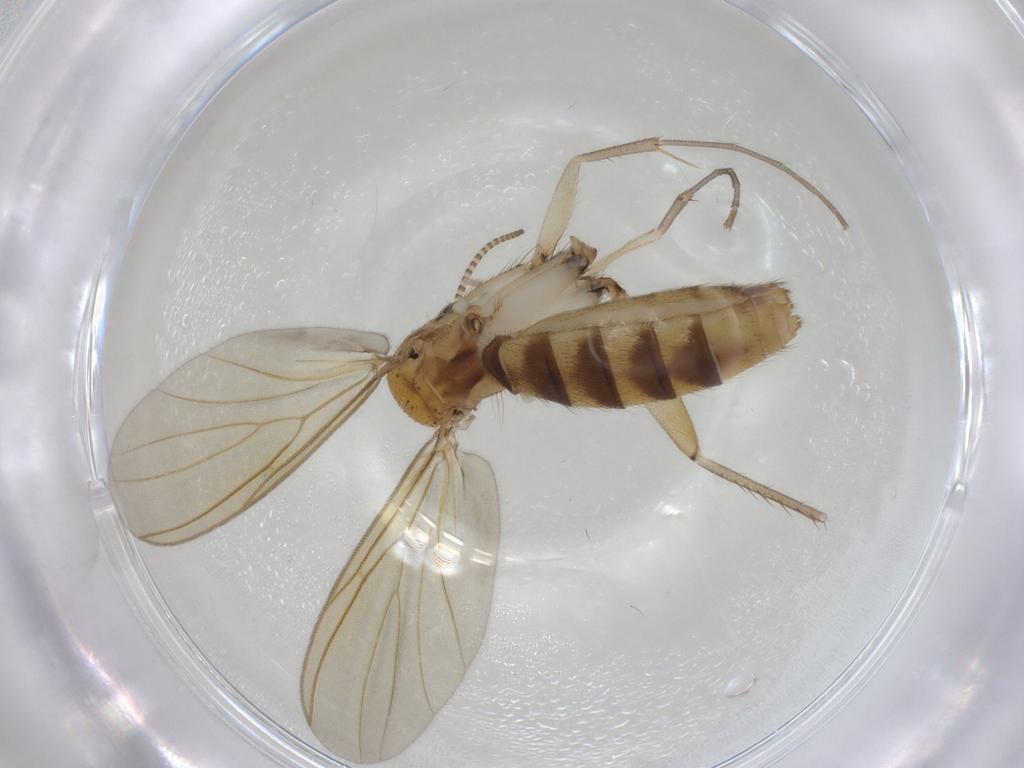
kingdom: Animalia
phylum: Arthropoda
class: Insecta
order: Diptera
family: Mycetophilidae
